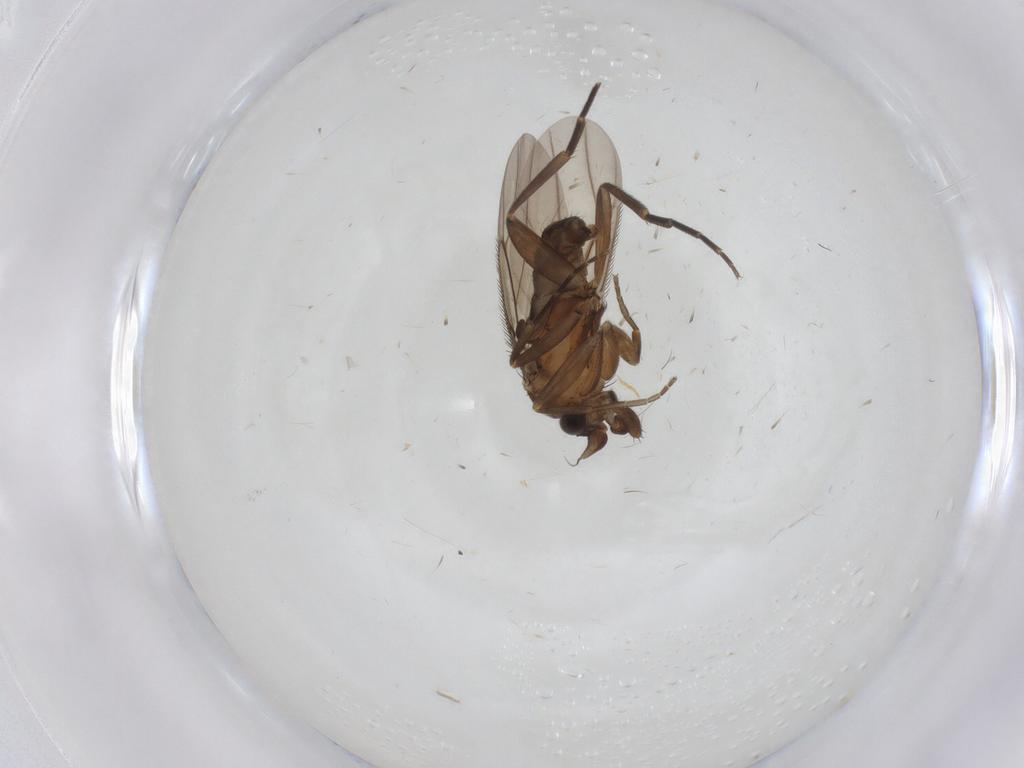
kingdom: Animalia
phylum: Arthropoda
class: Insecta
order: Diptera
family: Phoridae
